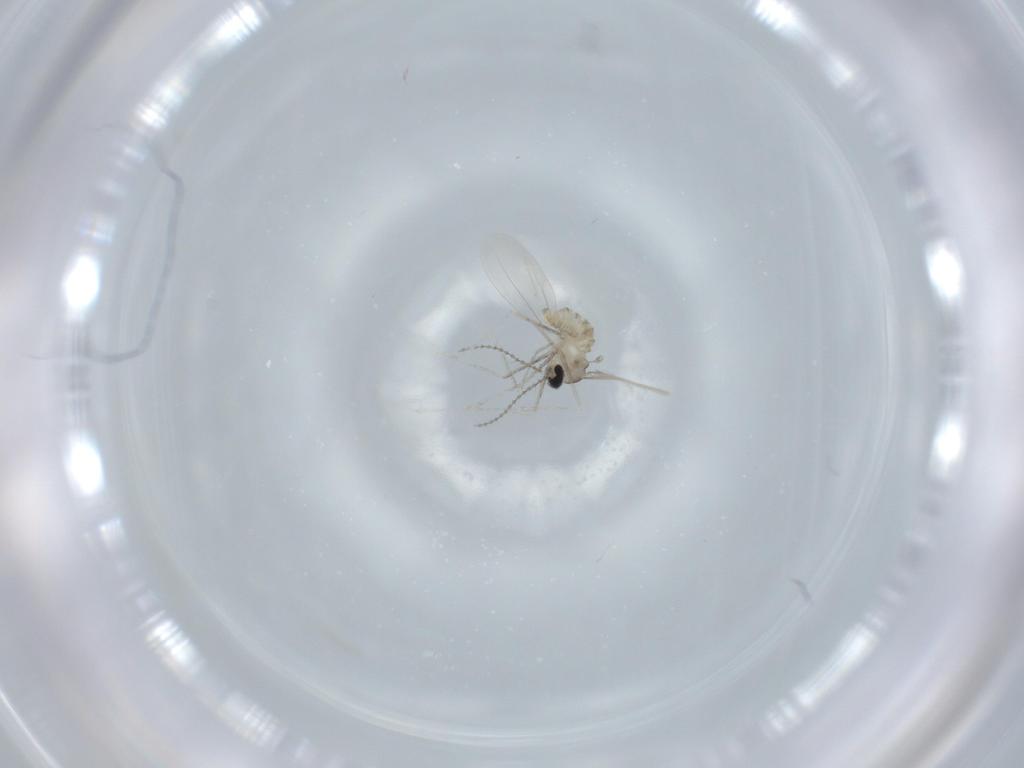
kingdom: Animalia
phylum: Arthropoda
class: Insecta
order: Diptera
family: Cecidomyiidae
